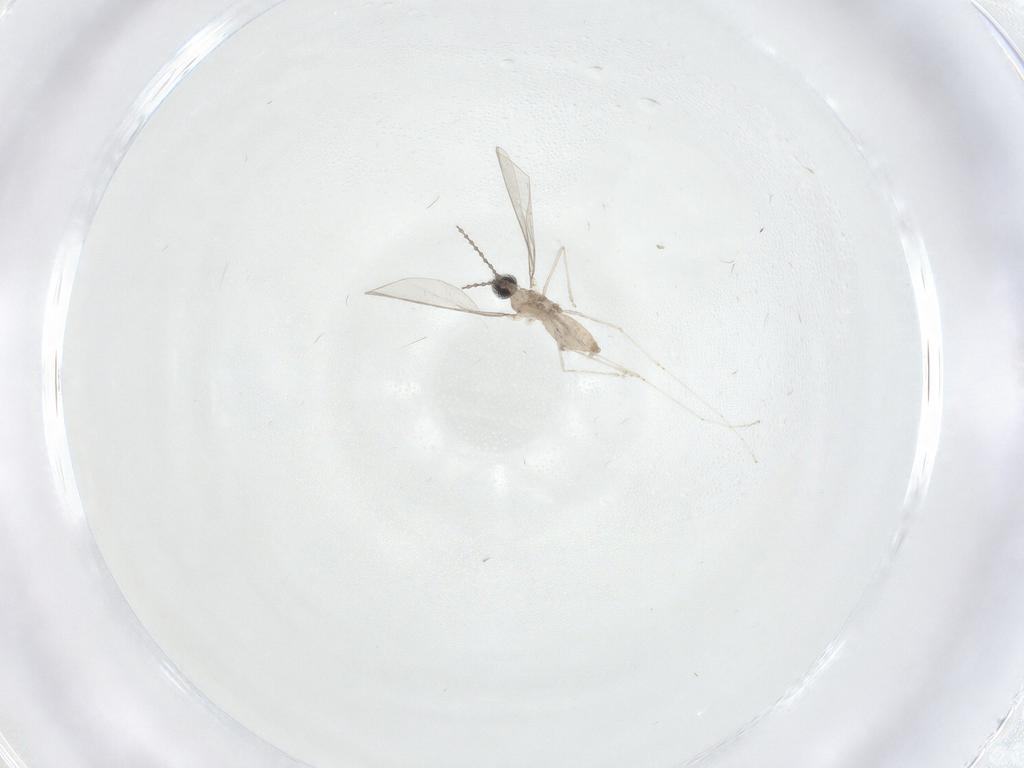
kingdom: Animalia
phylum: Arthropoda
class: Insecta
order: Diptera
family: Cecidomyiidae
